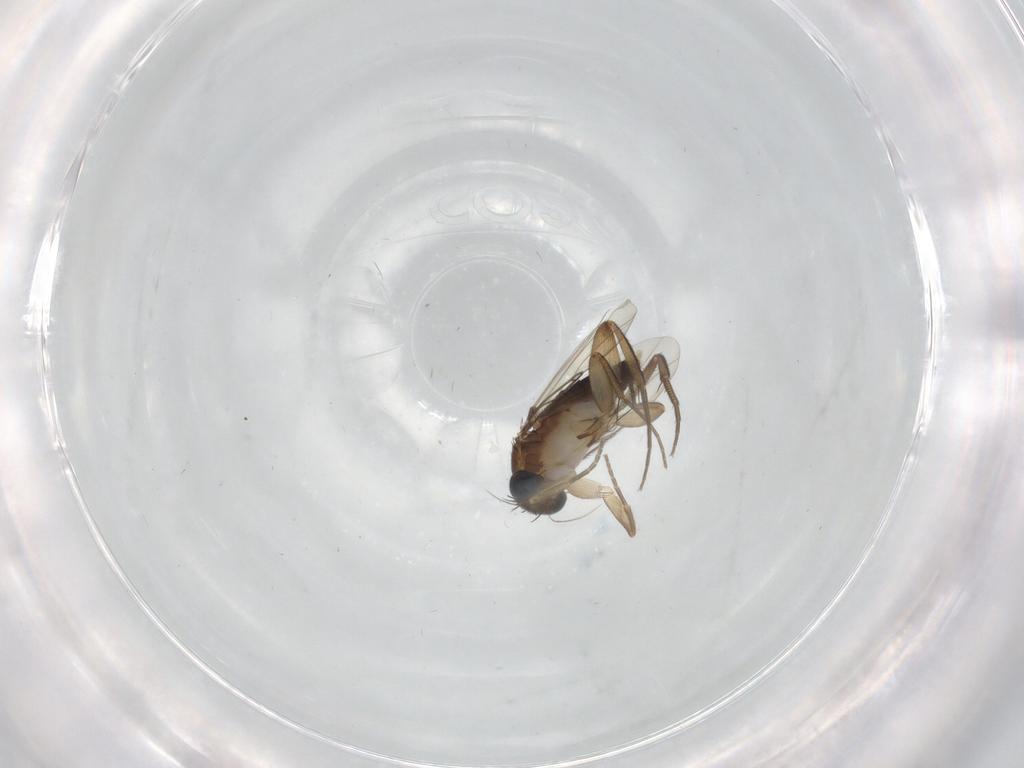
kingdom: Animalia
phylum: Arthropoda
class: Insecta
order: Diptera
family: Phoridae
